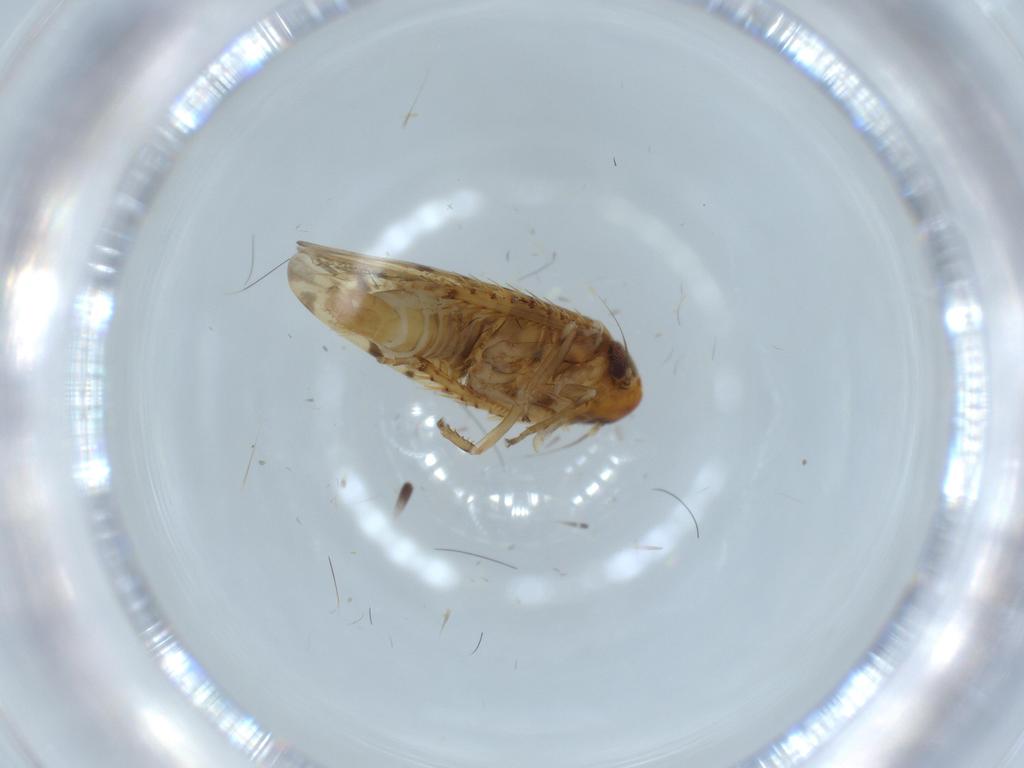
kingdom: Animalia
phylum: Arthropoda
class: Insecta
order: Hemiptera
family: Cicadellidae
